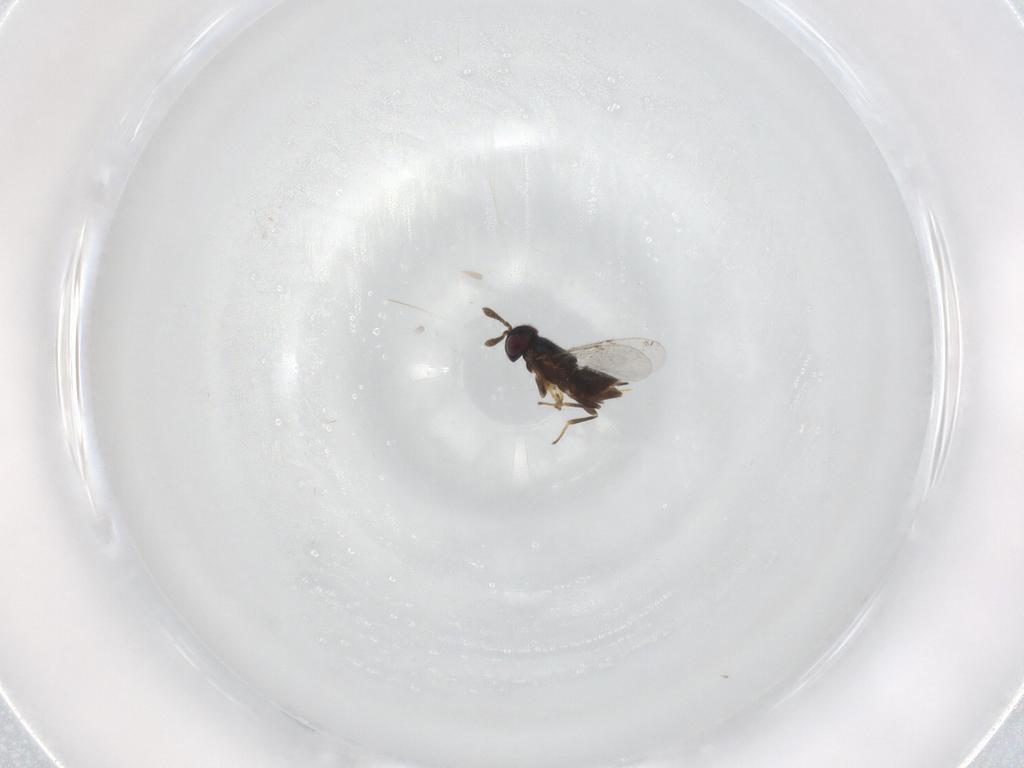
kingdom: Animalia
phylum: Arthropoda
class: Insecta
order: Hymenoptera
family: Encyrtidae
